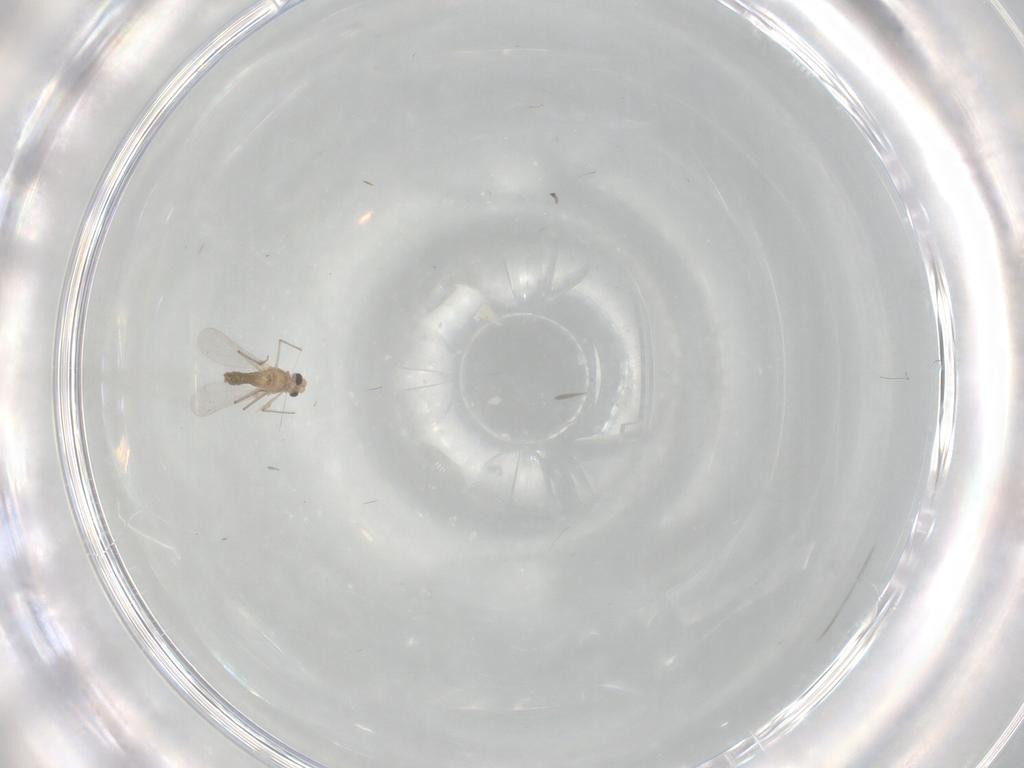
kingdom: Animalia
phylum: Arthropoda
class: Insecta
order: Diptera
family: Chironomidae
